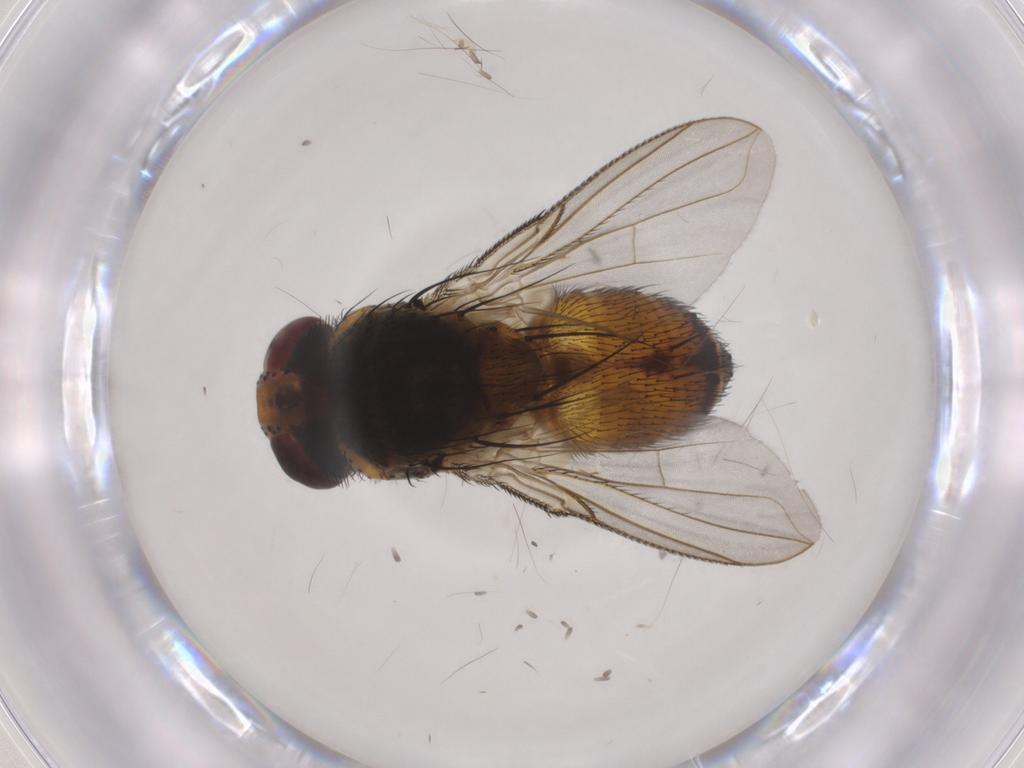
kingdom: Animalia
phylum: Arthropoda
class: Insecta
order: Diptera
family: Tachinidae
